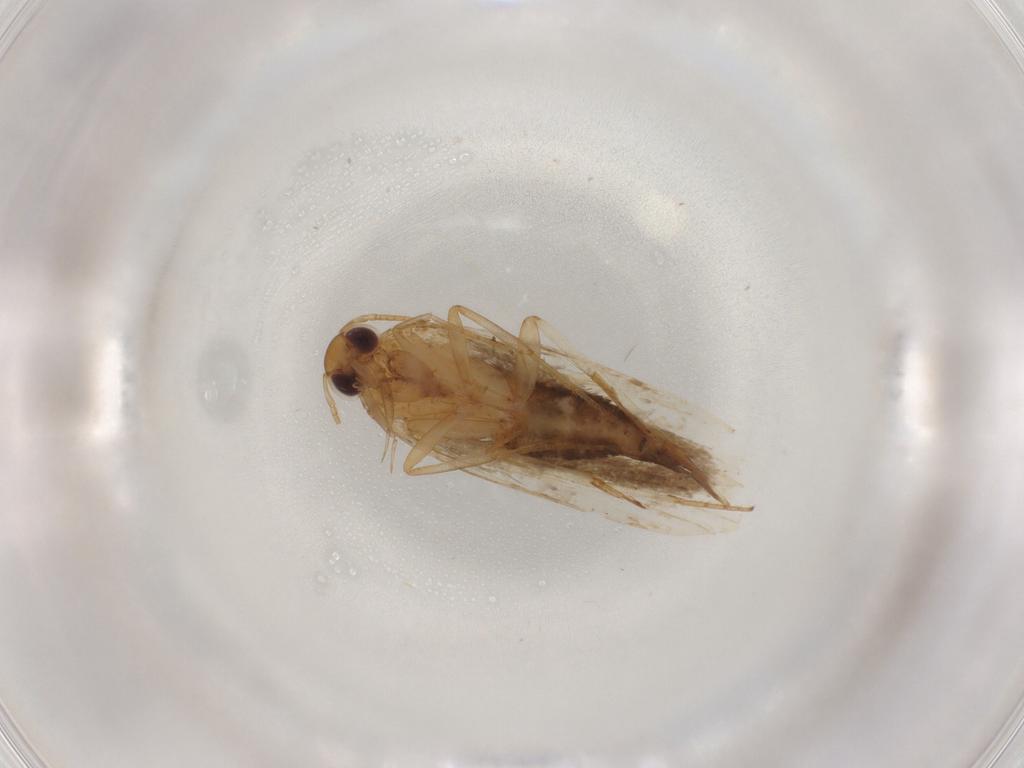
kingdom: Animalia
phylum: Arthropoda
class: Insecta
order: Lepidoptera
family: Gelechiidae
